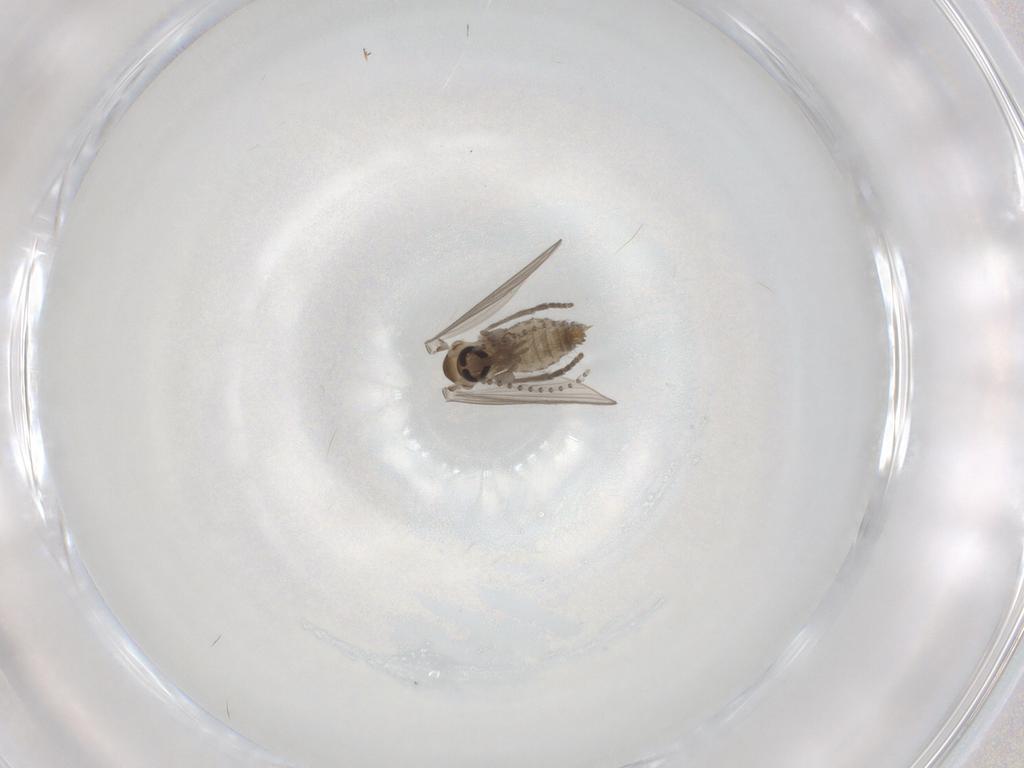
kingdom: Animalia
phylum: Arthropoda
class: Insecta
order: Diptera
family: Psychodidae
